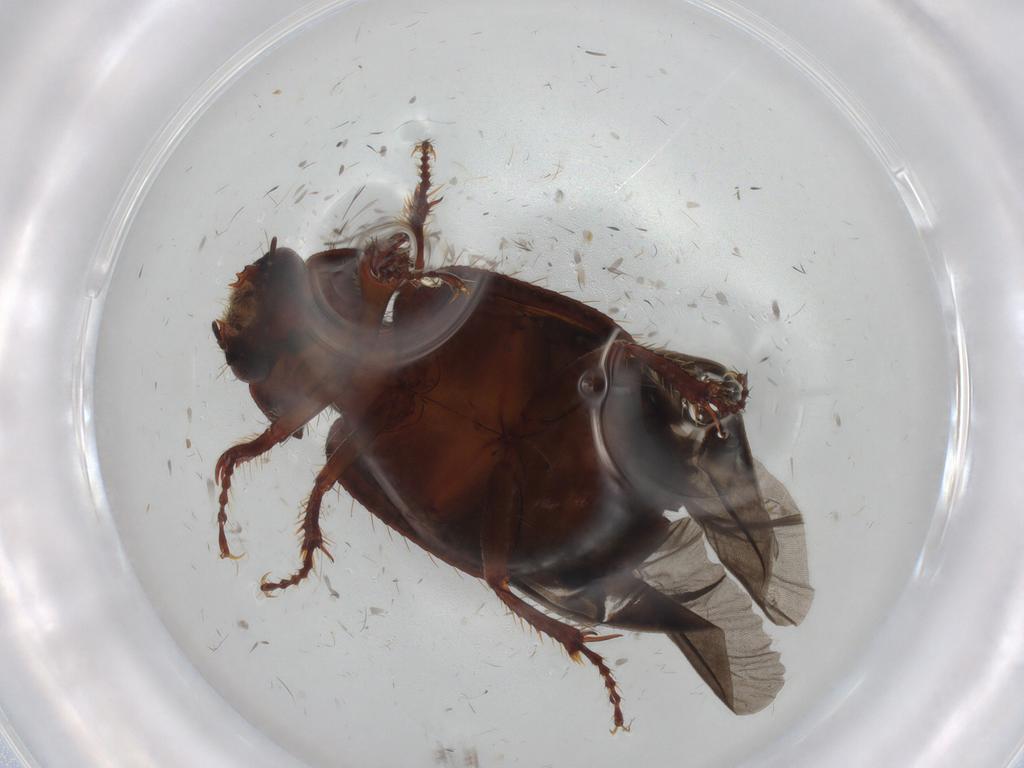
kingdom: Animalia
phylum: Arthropoda
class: Insecta
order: Coleoptera
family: Hybosoridae
